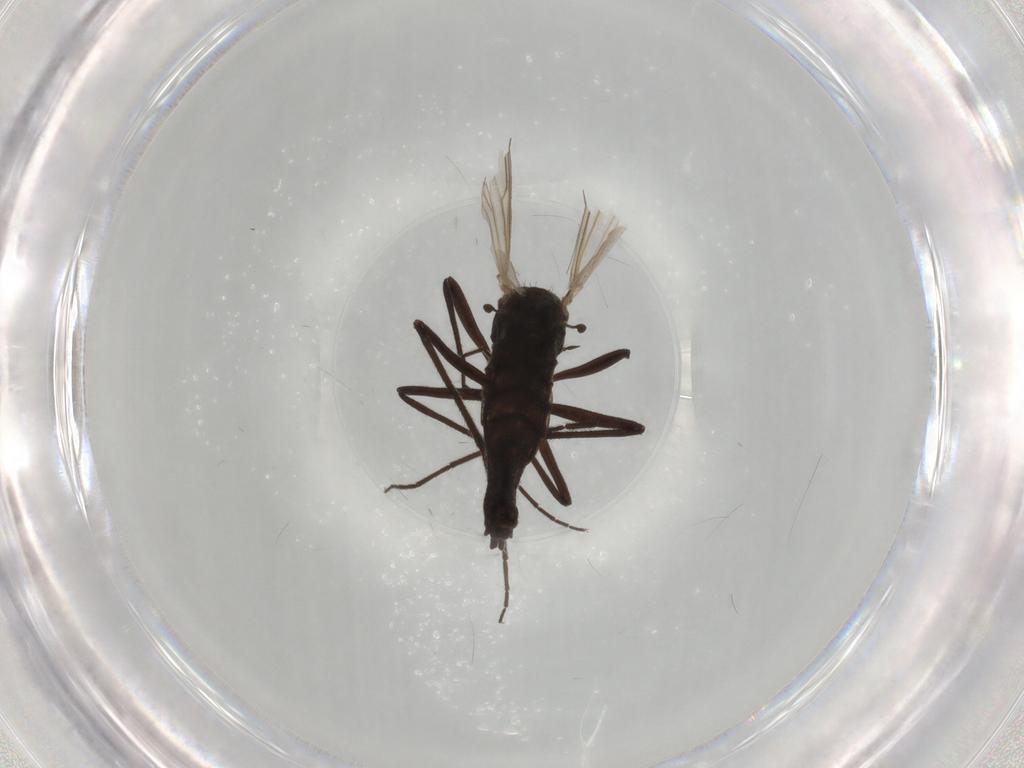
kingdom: Animalia
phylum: Arthropoda
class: Insecta
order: Diptera
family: Chironomidae
